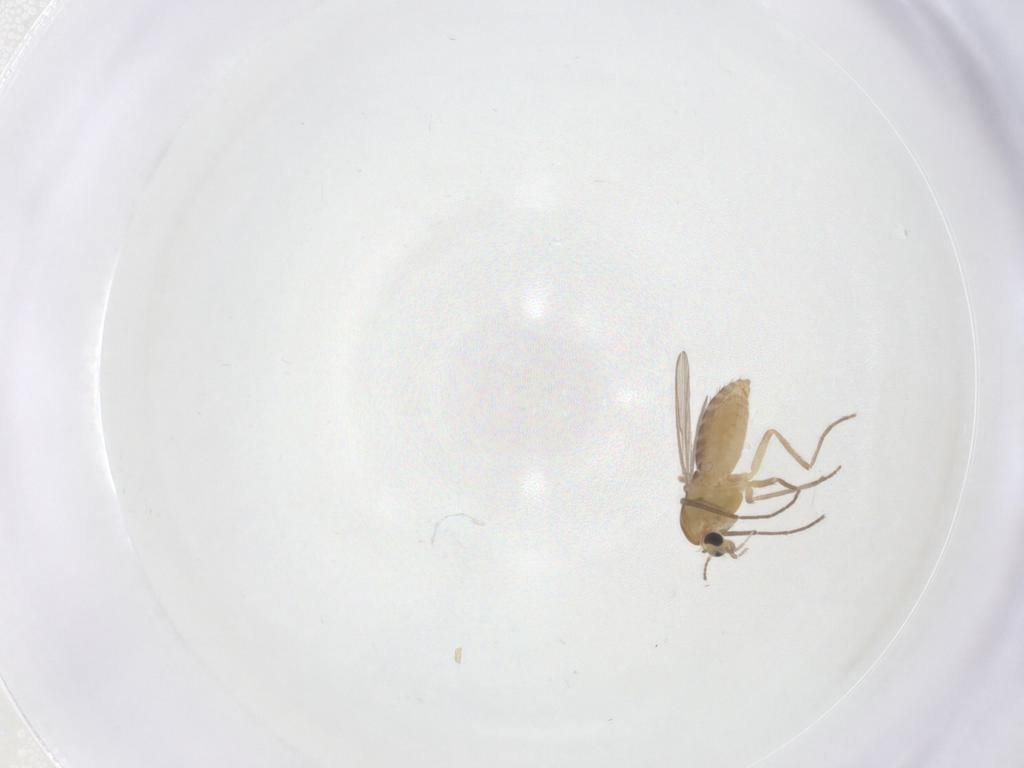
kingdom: Animalia
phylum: Arthropoda
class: Insecta
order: Diptera
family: Chironomidae
